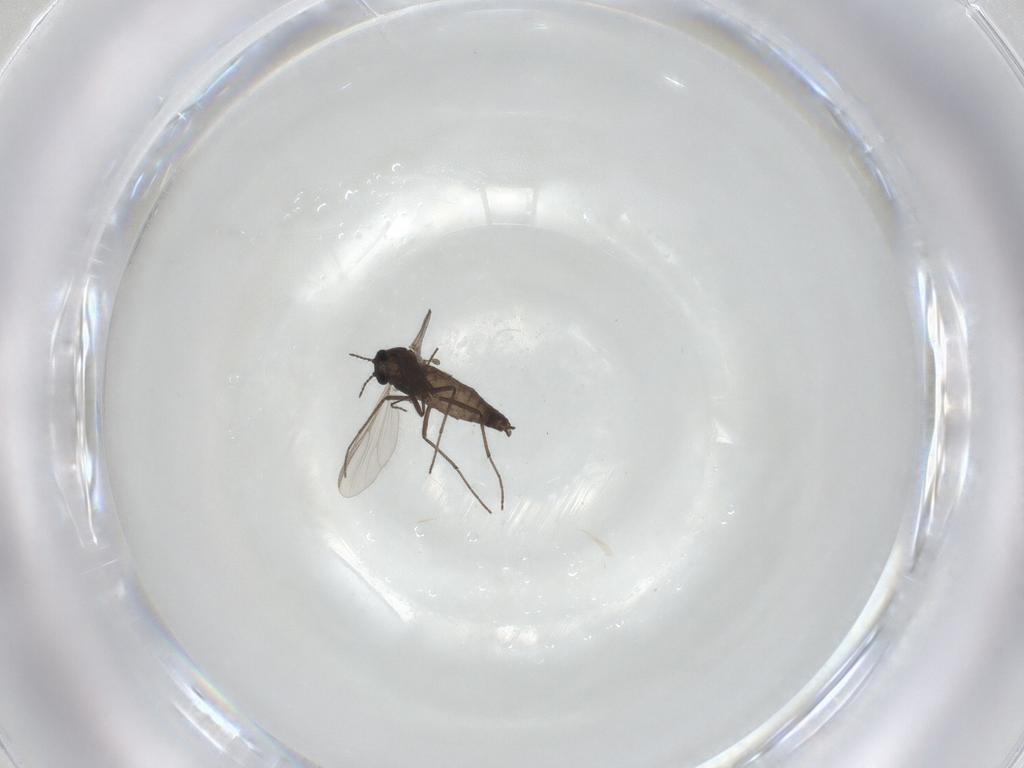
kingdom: Animalia
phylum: Arthropoda
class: Insecta
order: Diptera
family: Chironomidae
